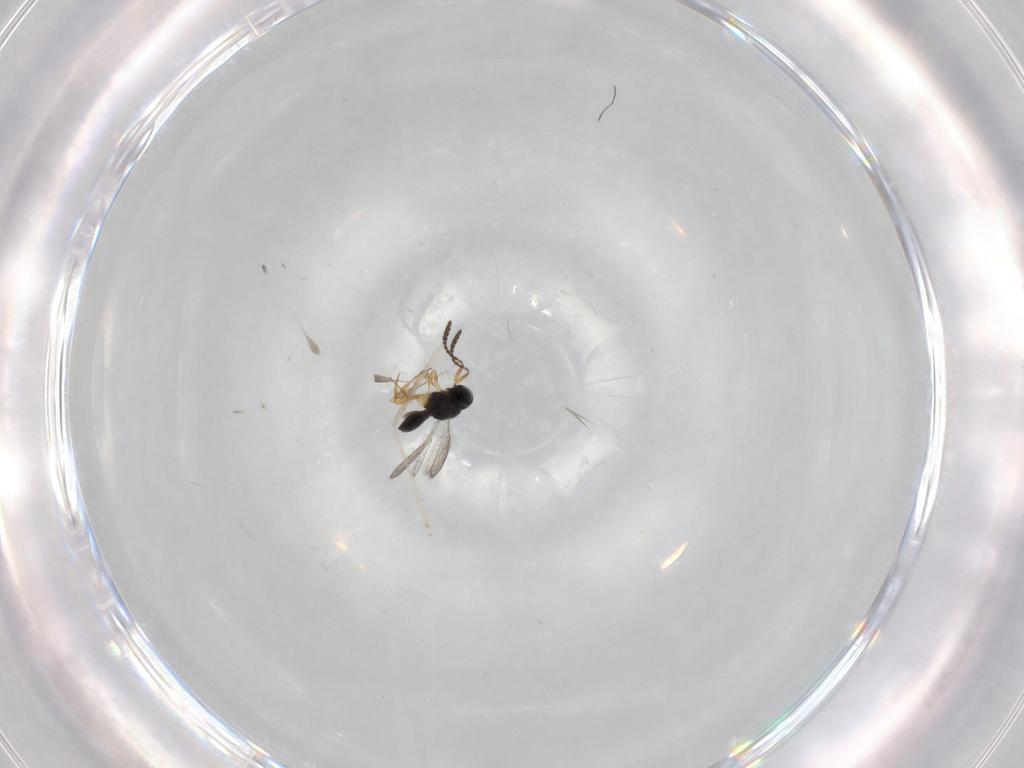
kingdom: Animalia
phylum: Arthropoda
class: Insecta
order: Hymenoptera
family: Scelionidae
